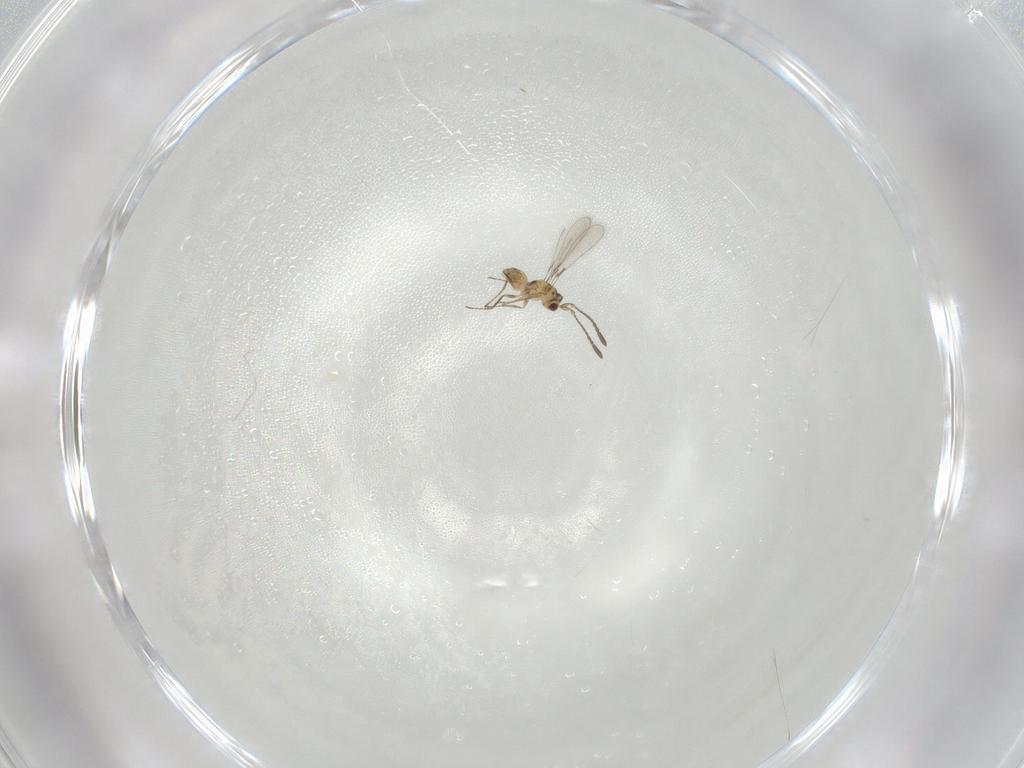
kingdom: Animalia
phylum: Arthropoda
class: Insecta
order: Hymenoptera
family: Mymaridae
